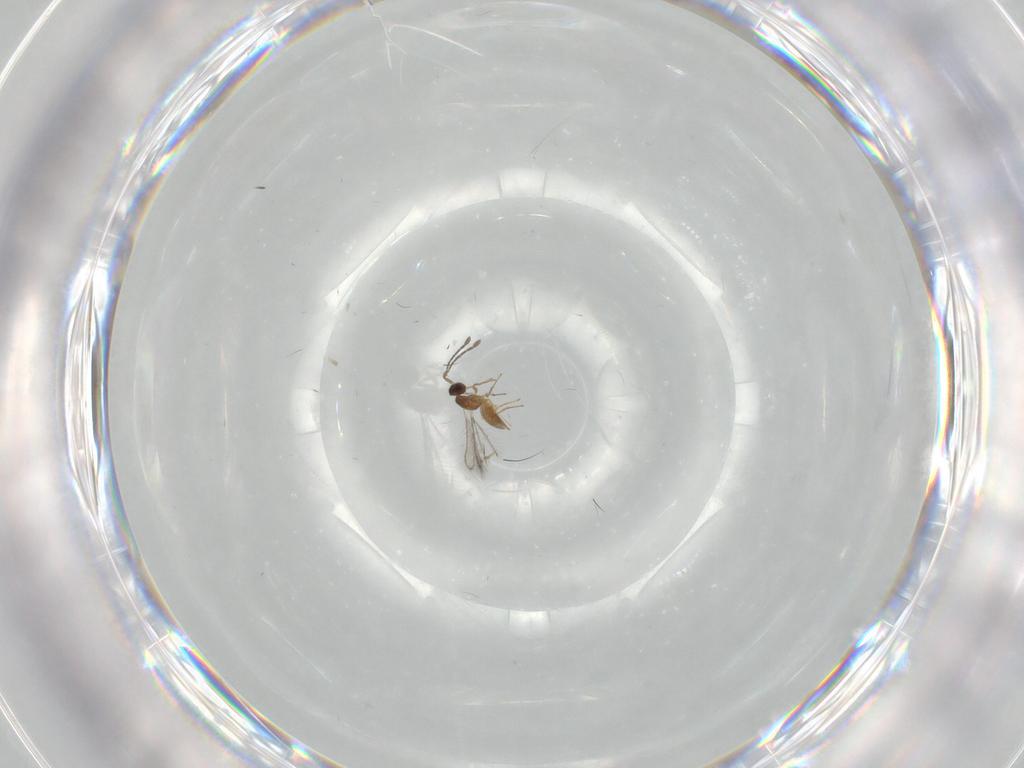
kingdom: Animalia
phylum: Arthropoda
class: Insecta
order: Hymenoptera
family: Mymaridae
